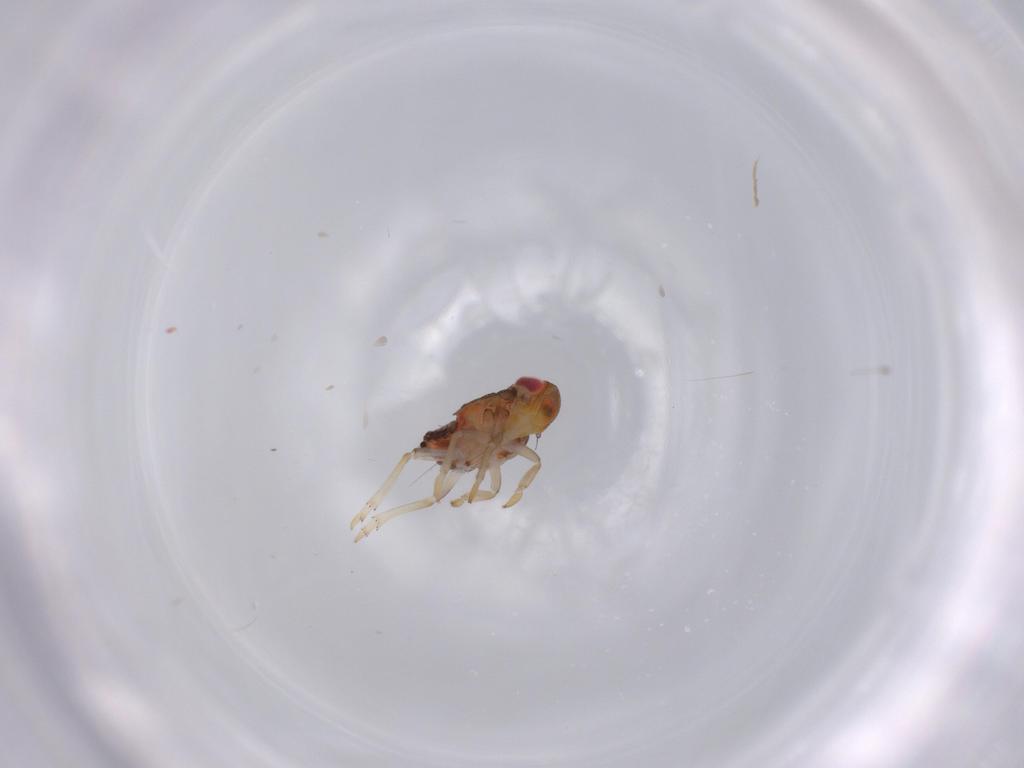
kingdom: Animalia
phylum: Arthropoda
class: Insecta
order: Hemiptera
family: Issidae
